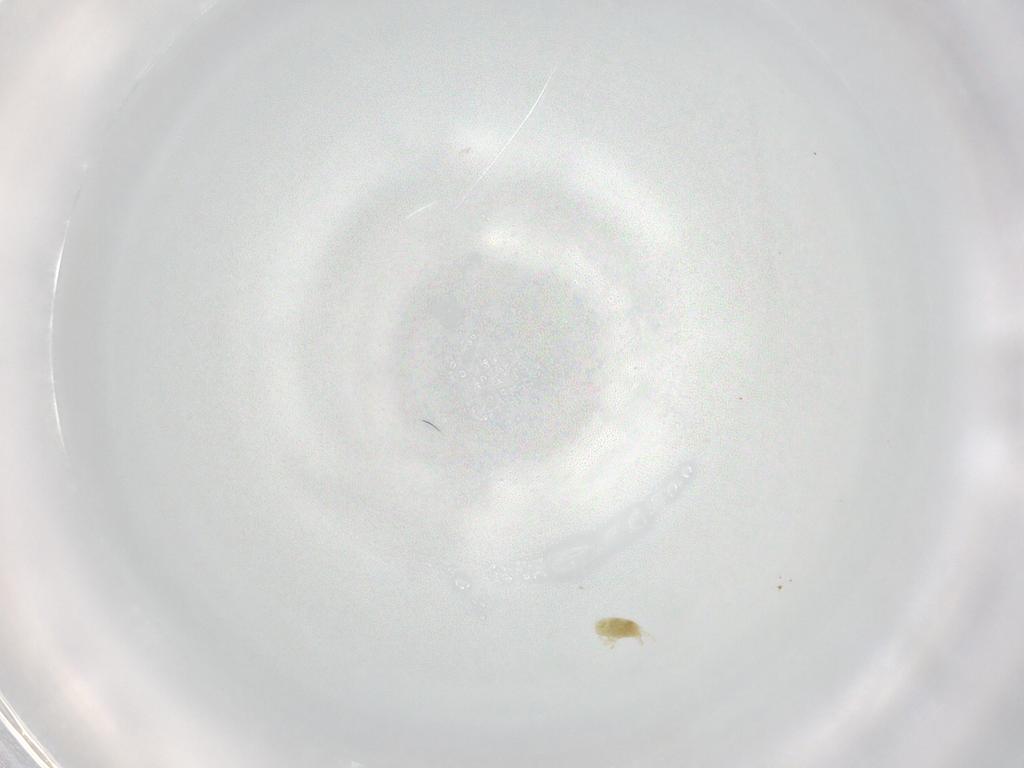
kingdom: Animalia
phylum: Arthropoda
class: Arachnida
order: Trombidiformes
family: Tetranychidae
